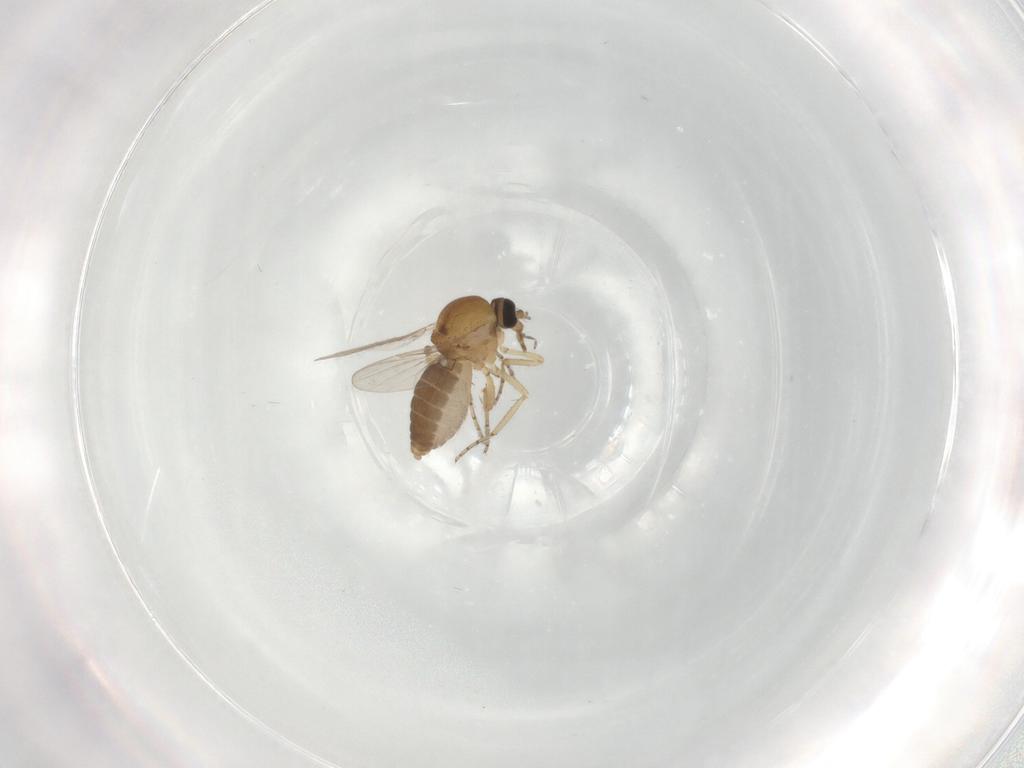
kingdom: Animalia
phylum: Arthropoda
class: Insecta
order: Diptera
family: Ceratopogonidae
